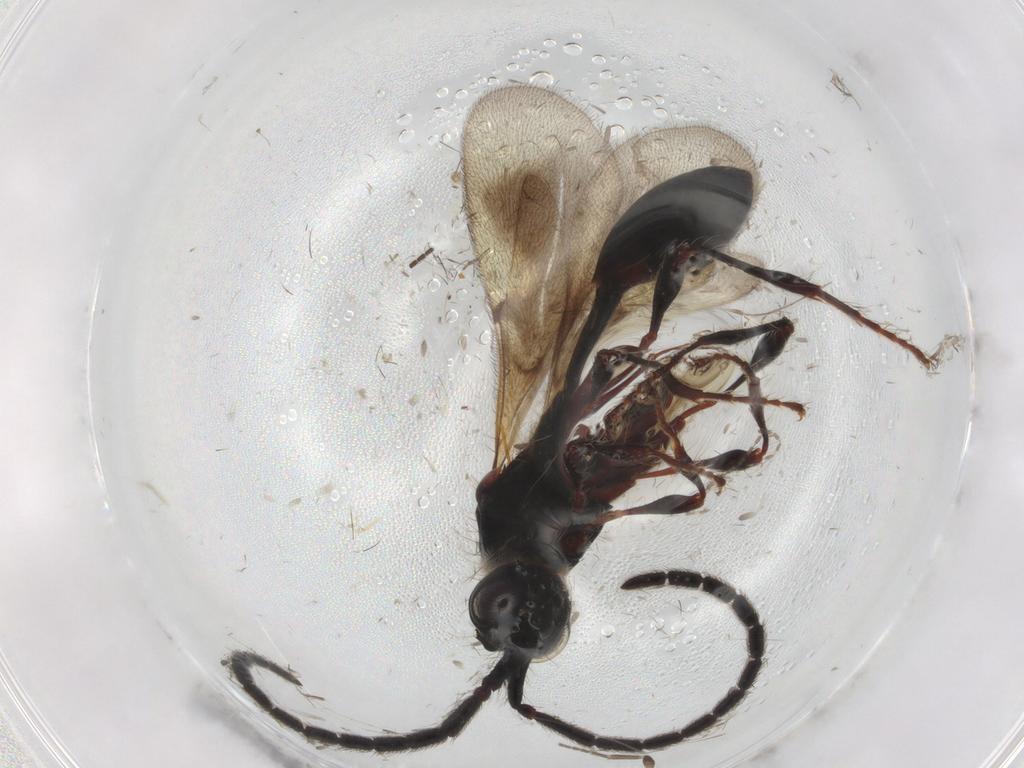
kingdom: Animalia
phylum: Arthropoda
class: Insecta
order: Hymenoptera
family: Diapriidae
